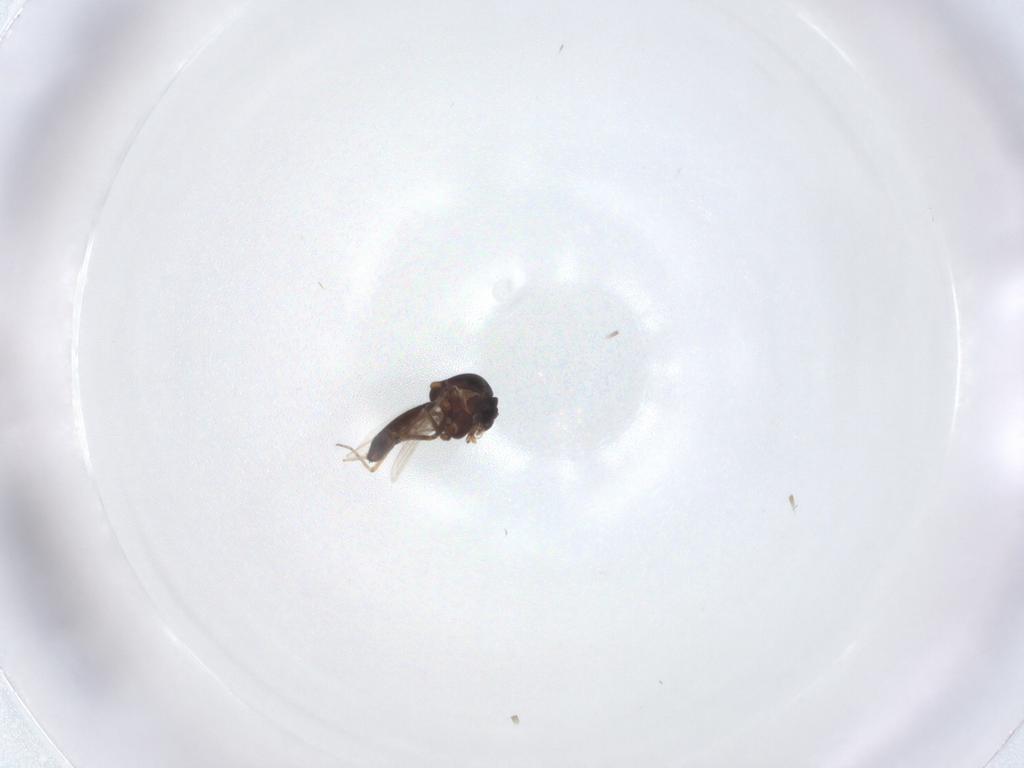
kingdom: Animalia
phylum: Arthropoda
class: Insecta
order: Diptera
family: Ceratopogonidae
